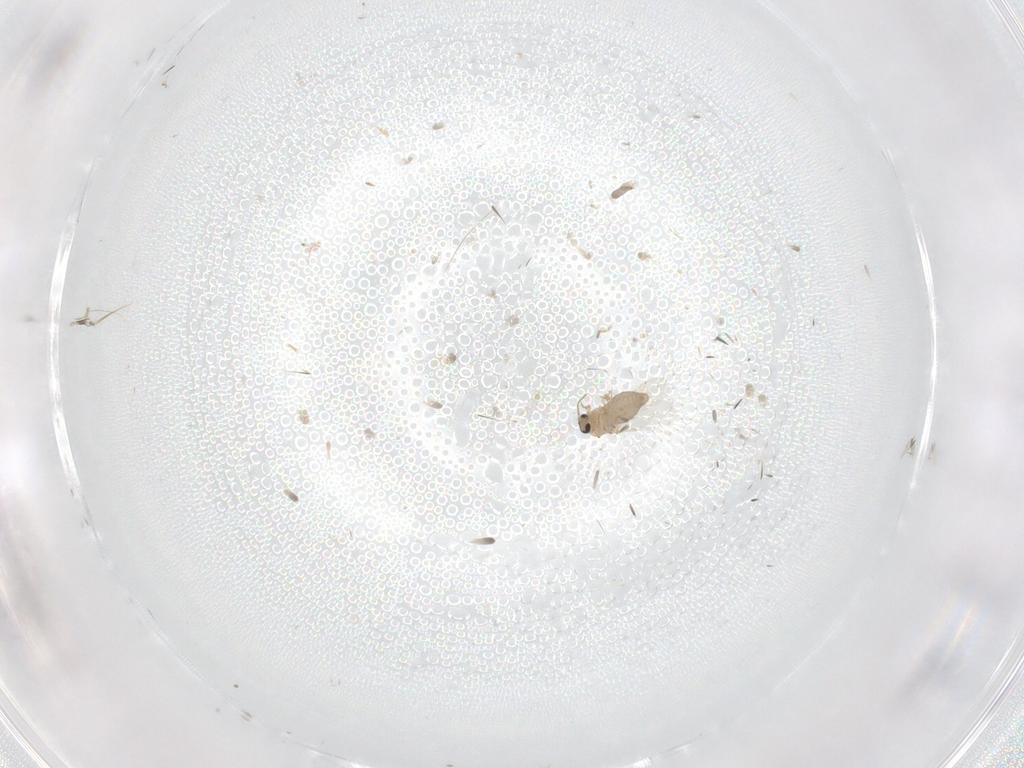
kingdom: Animalia
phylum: Arthropoda
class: Insecta
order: Diptera
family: Ceratopogonidae
